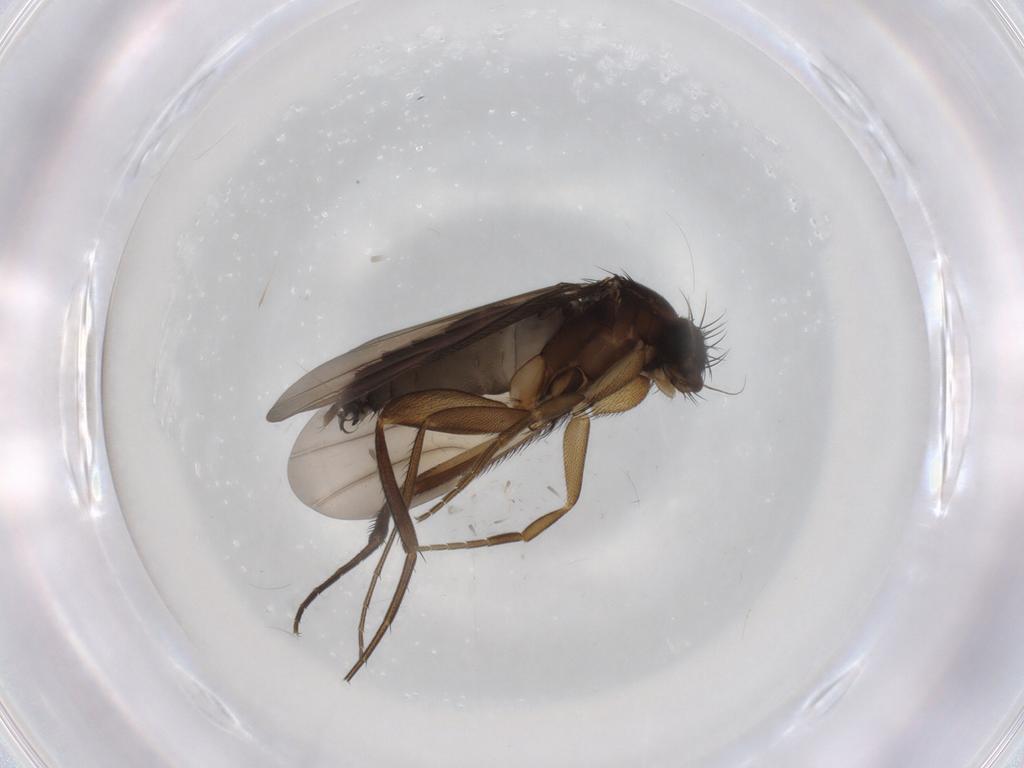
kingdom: Animalia
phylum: Arthropoda
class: Insecta
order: Diptera
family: Phoridae
